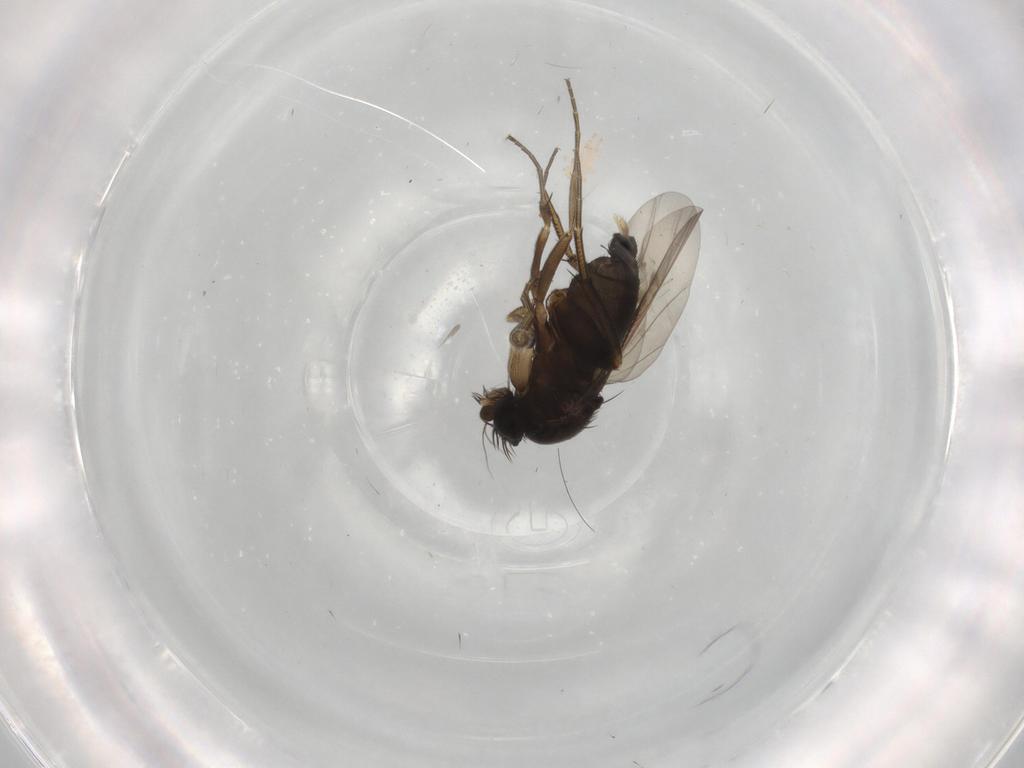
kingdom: Animalia
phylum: Arthropoda
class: Insecta
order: Diptera
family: Phoridae
